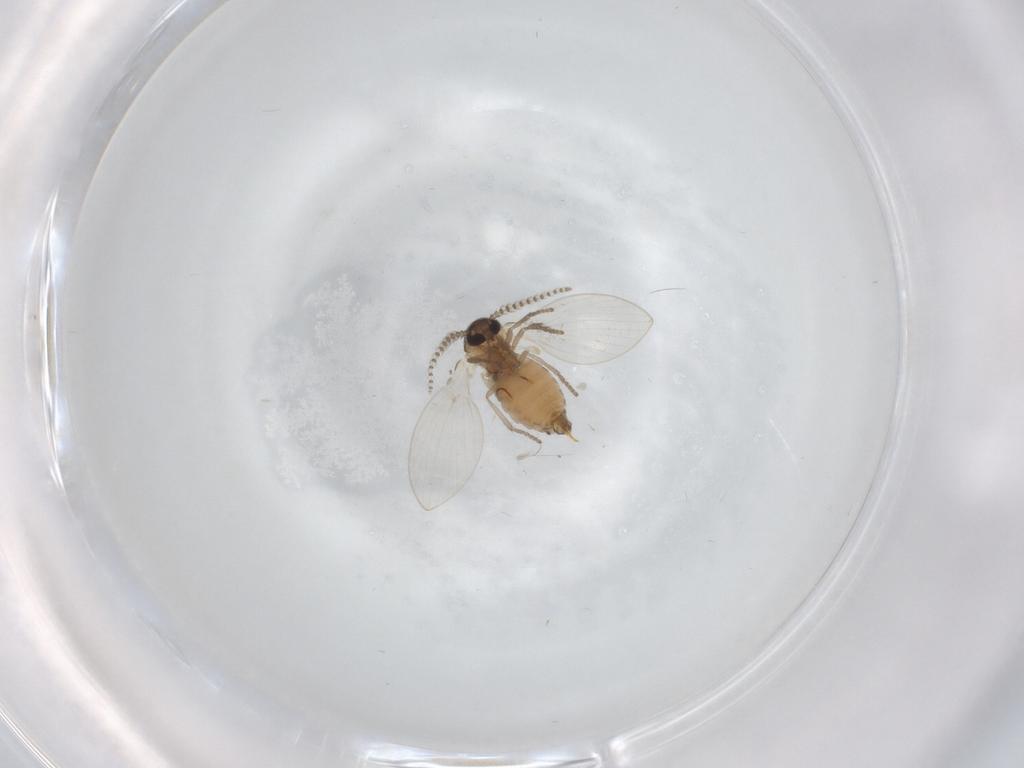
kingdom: Animalia
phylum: Arthropoda
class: Insecta
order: Diptera
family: Psychodidae
